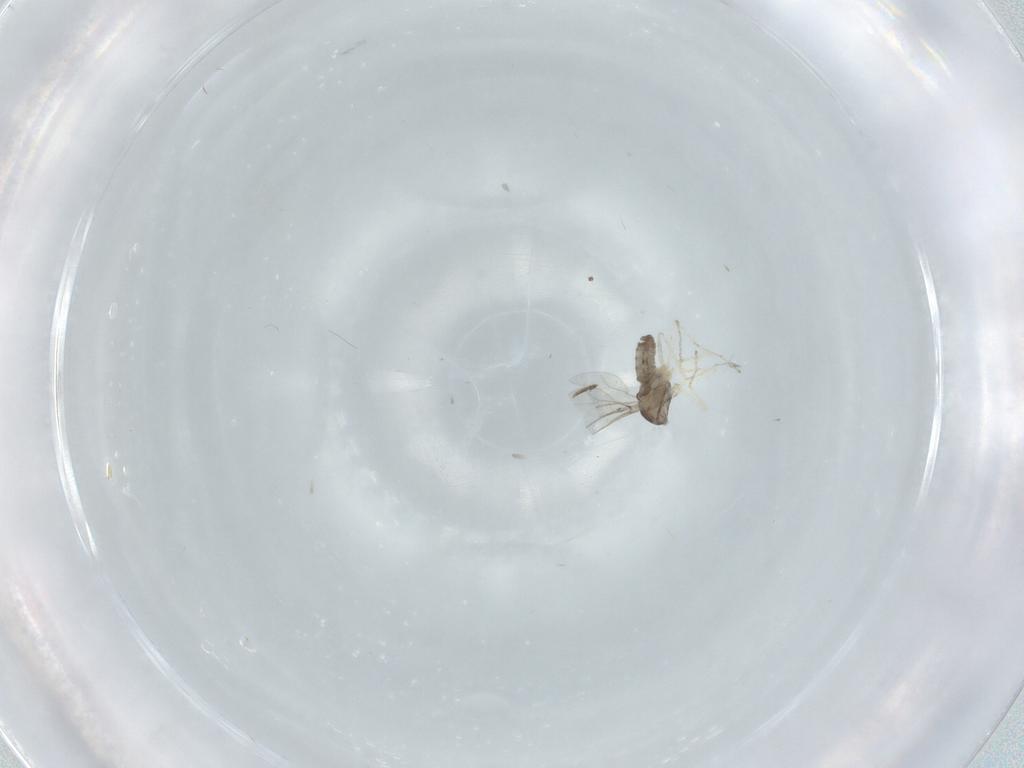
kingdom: Animalia
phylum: Arthropoda
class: Insecta
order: Diptera
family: Cecidomyiidae
